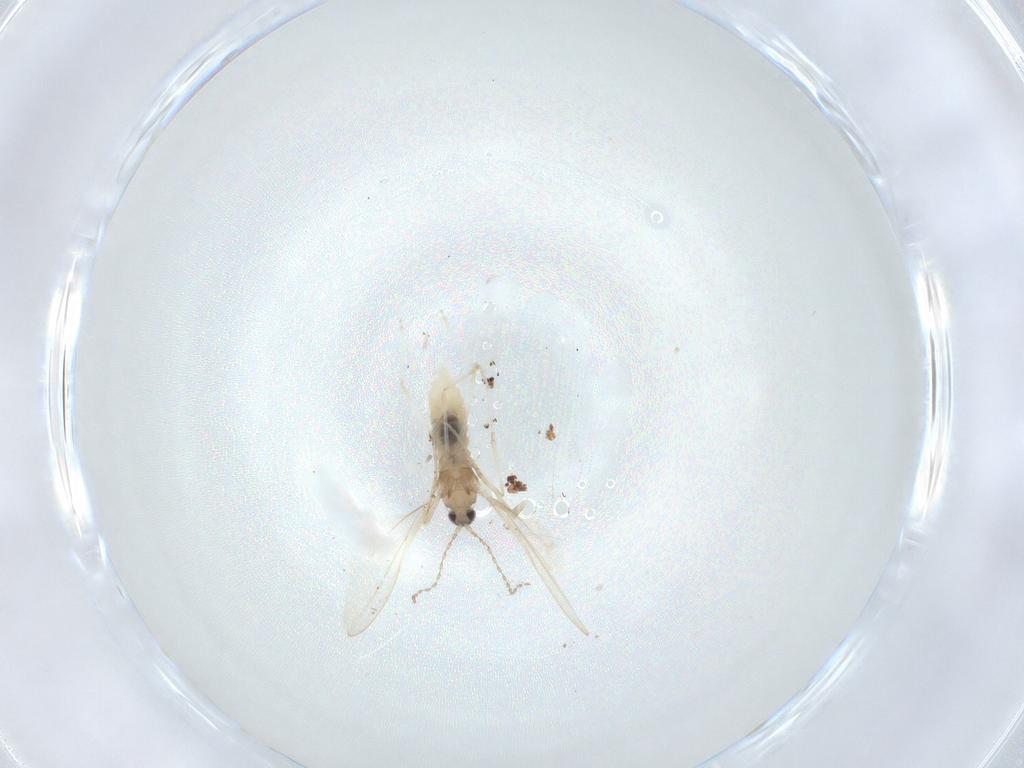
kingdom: Animalia
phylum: Arthropoda
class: Insecta
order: Diptera
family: Cecidomyiidae
